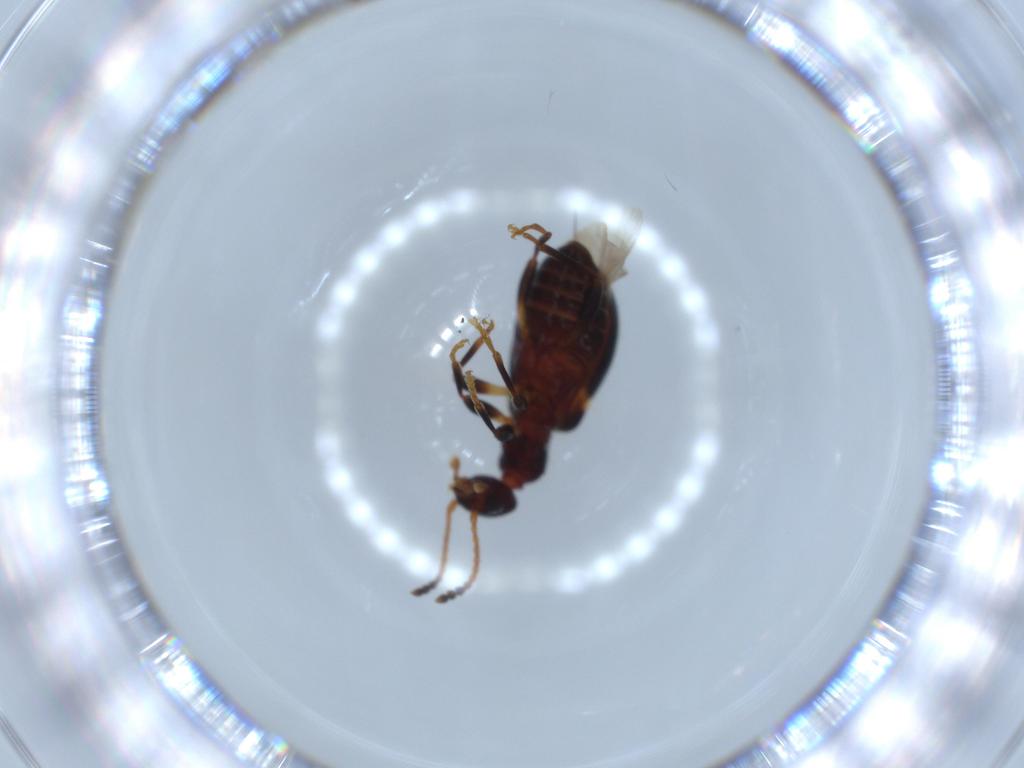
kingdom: Animalia
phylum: Arthropoda
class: Insecta
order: Coleoptera
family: Anthicidae
